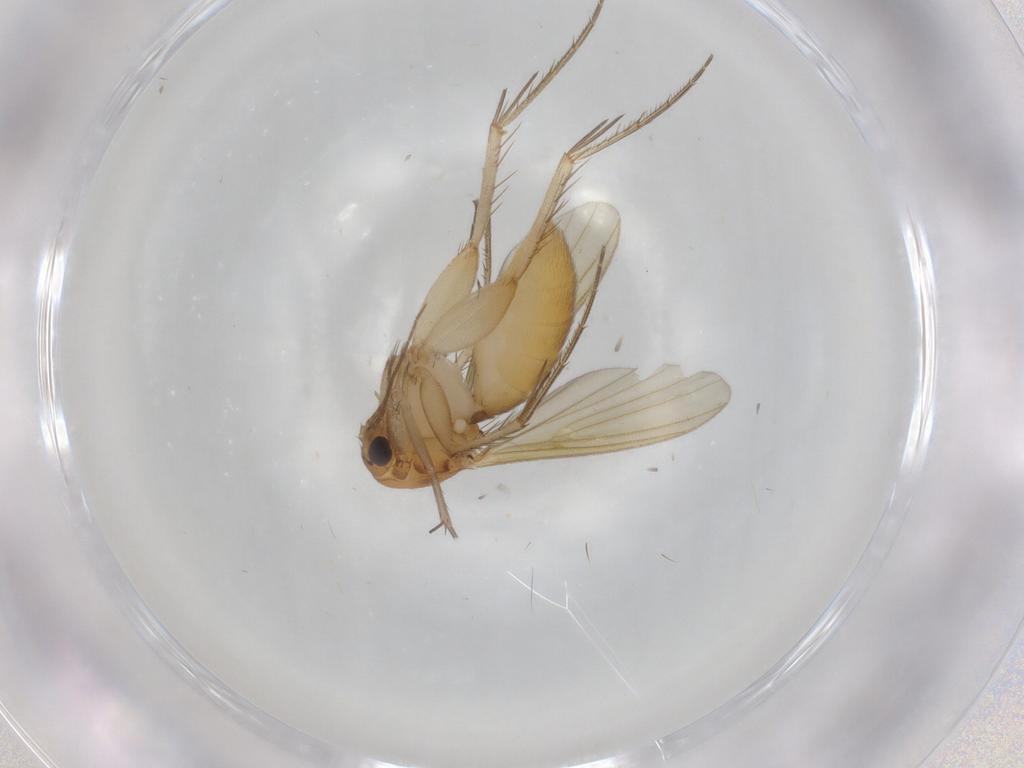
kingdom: Animalia
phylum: Arthropoda
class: Insecta
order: Diptera
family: Mycetophilidae
